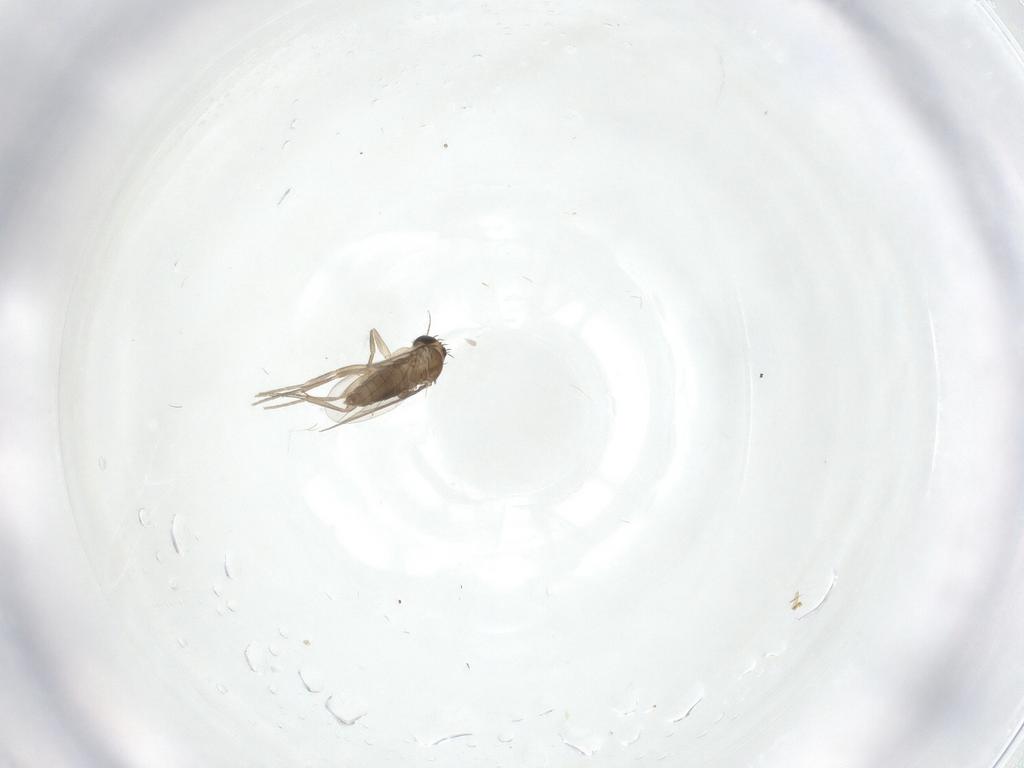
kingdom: Animalia
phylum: Arthropoda
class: Insecta
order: Diptera
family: Phoridae
